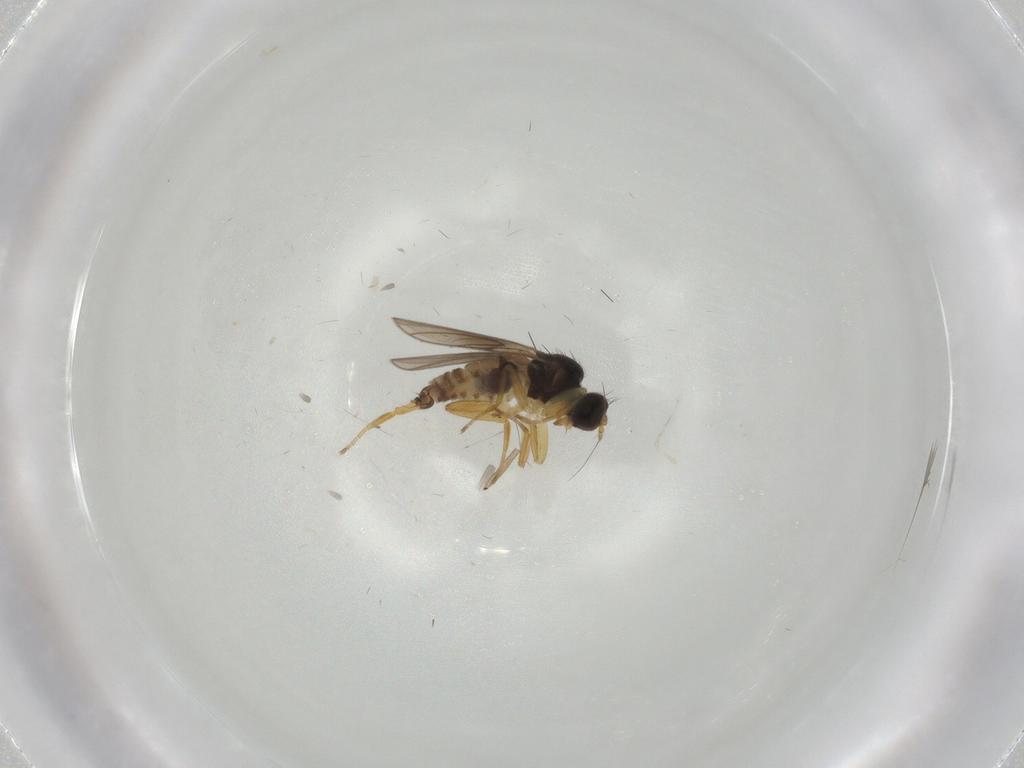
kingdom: Animalia
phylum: Arthropoda
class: Insecta
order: Diptera
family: Hybotidae
